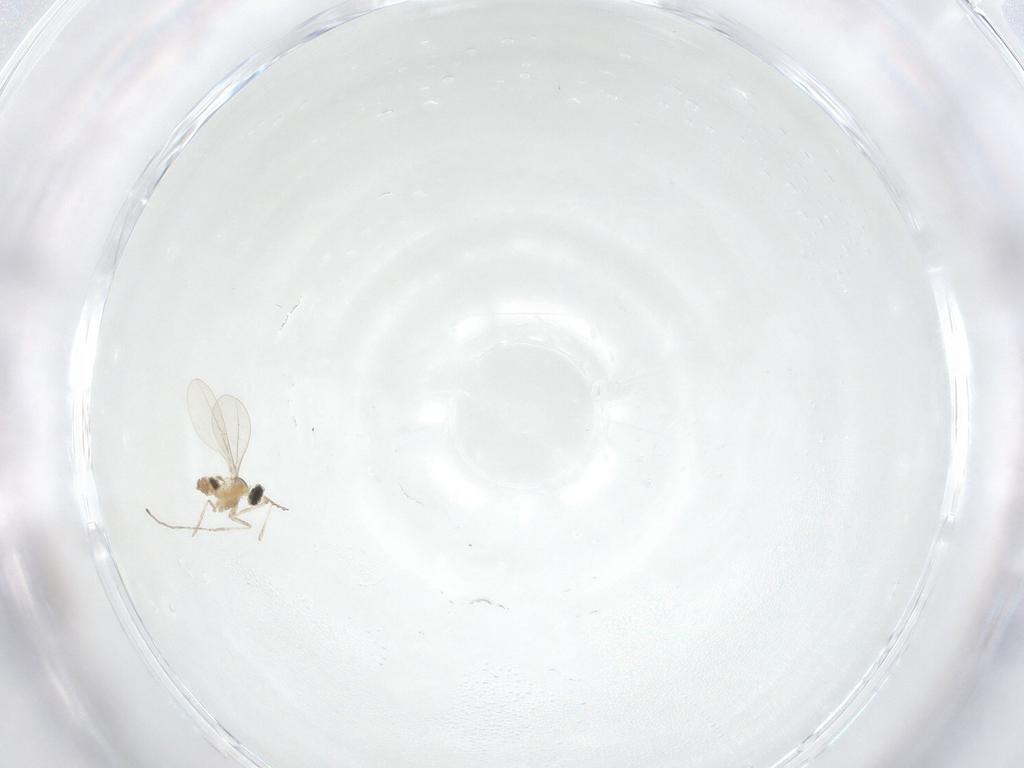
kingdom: Animalia
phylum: Arthropoda
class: Insecta
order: Diptera
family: Sciaridae
